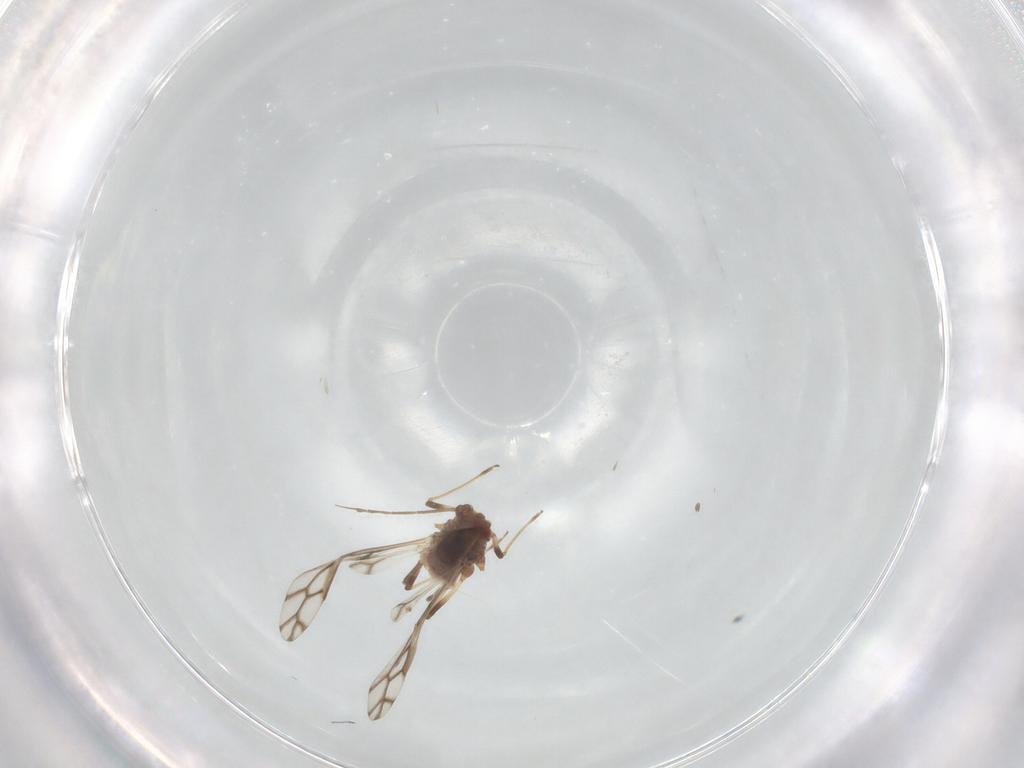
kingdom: Animalia
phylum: Arthropoda
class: Insecta
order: Hemiptera
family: Aphididae
